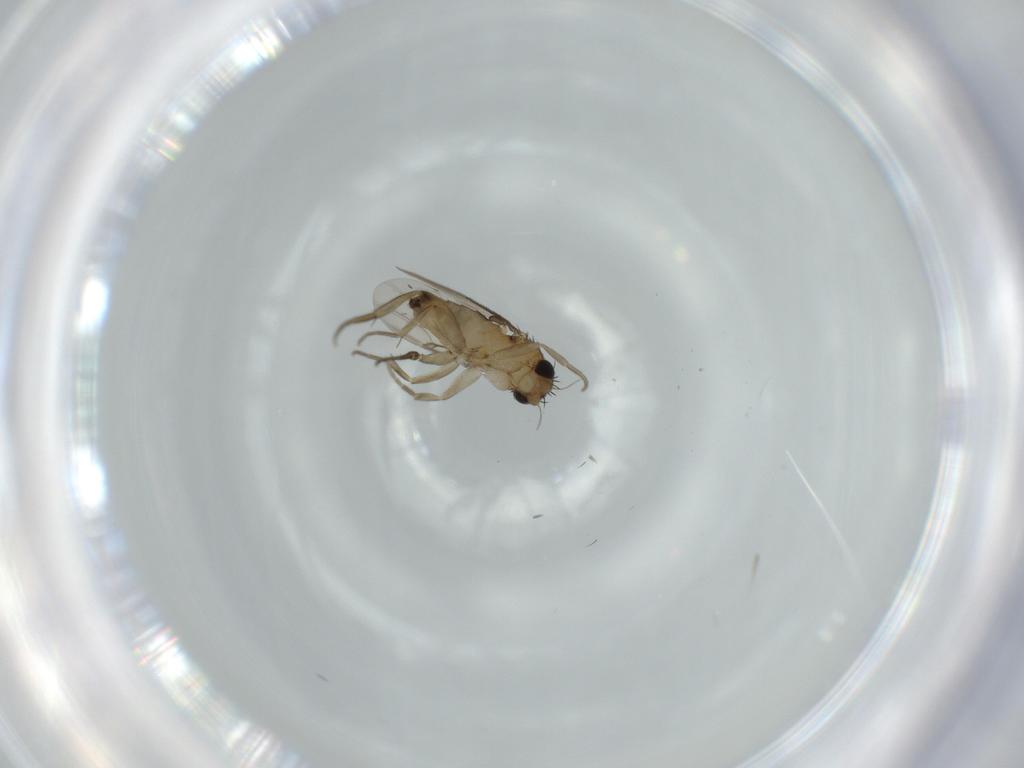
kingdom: Animalia
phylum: Arthropoda
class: Insecta
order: Diptera
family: Phoridae
